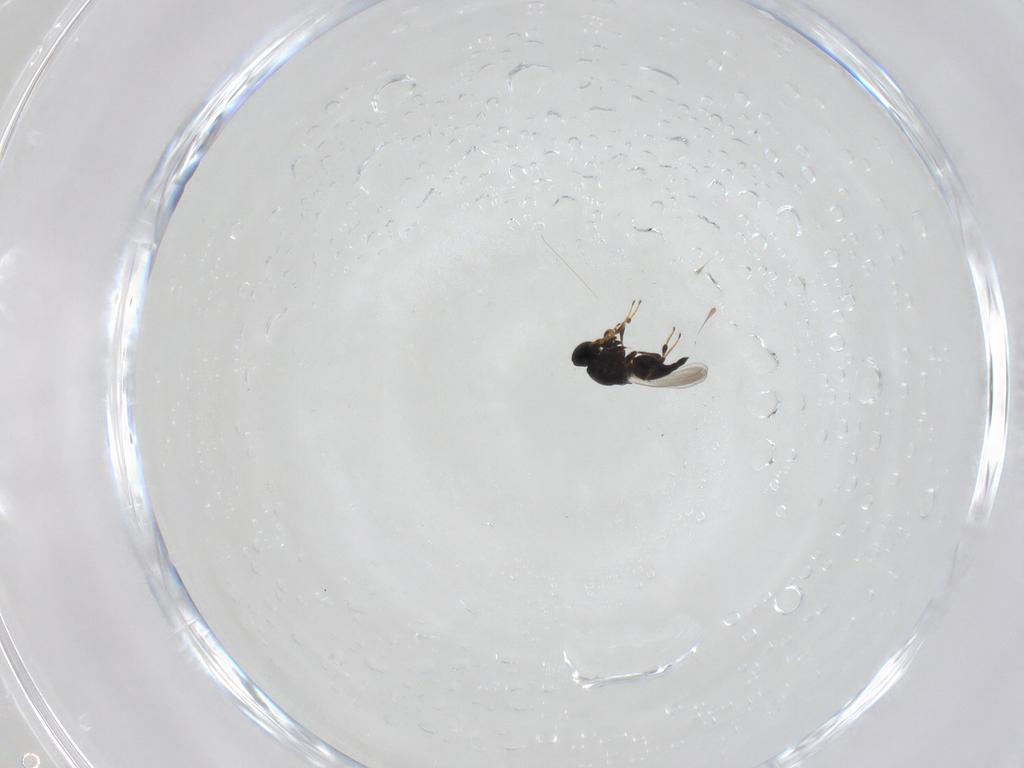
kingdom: Animalia
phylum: Arthropoda
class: Insecta
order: Hymenoptera
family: Platygastridae
